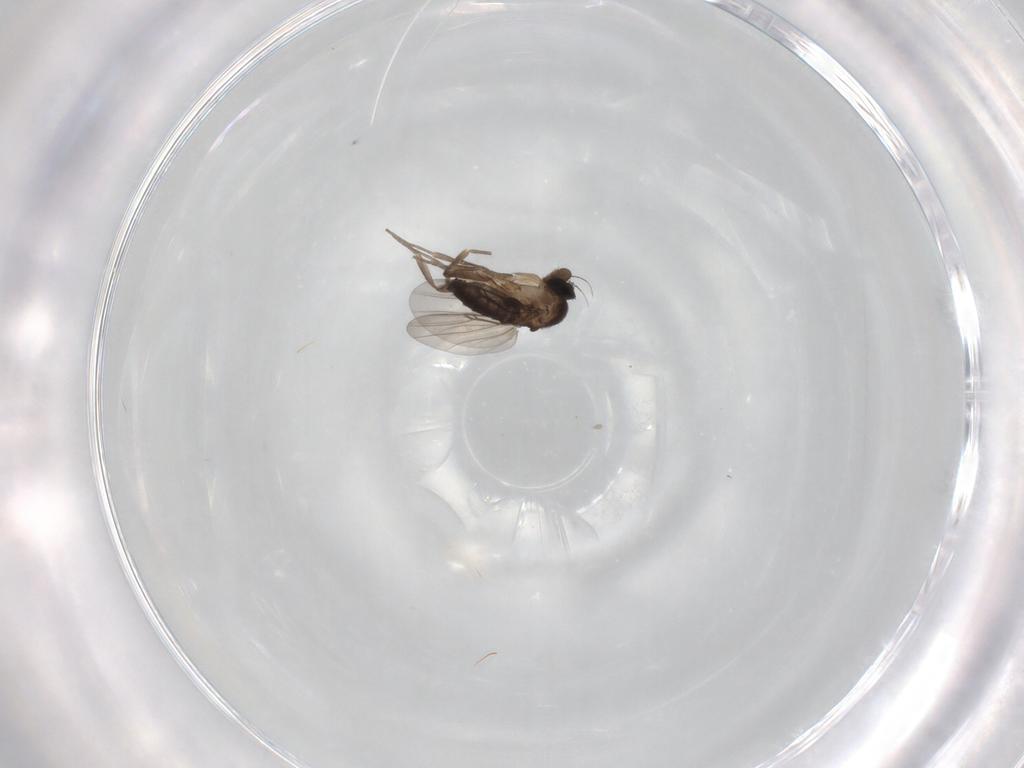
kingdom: Animalia
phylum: Arthropoda
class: Insecta
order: Diptera
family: Phoridae
